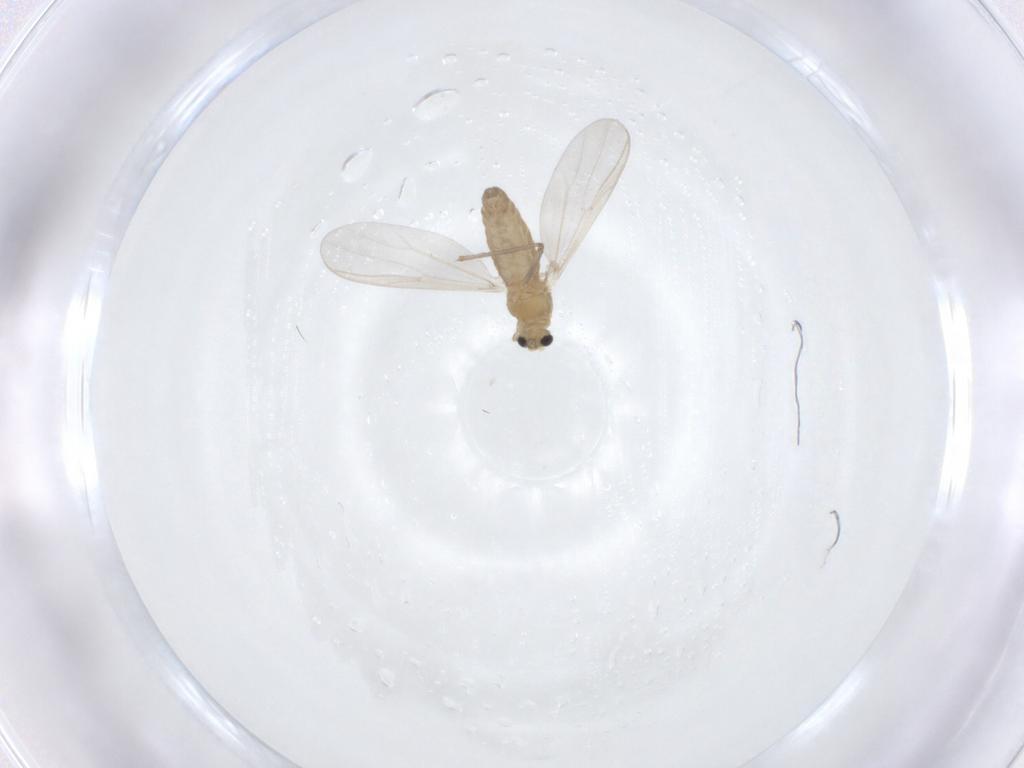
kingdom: Animalia
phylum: Arthropoda
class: Insecta
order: Diptera
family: Chironomidae
